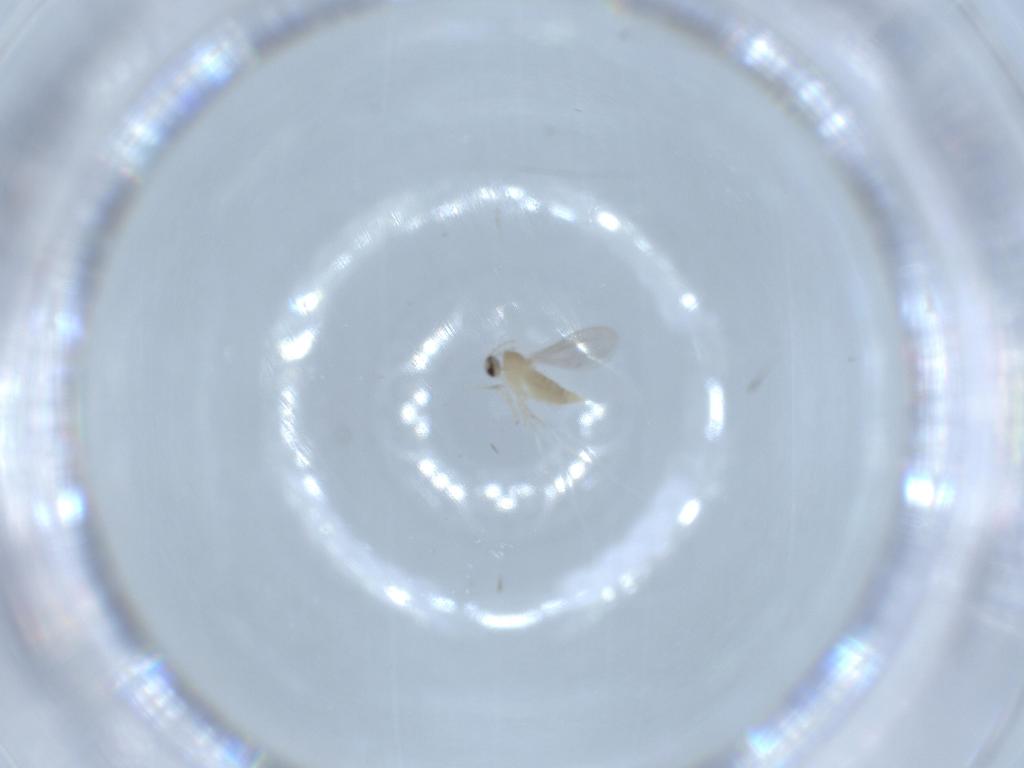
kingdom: Animalia
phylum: Arthropoda
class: Insecta
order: Diptera
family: Cecidomyiidae
